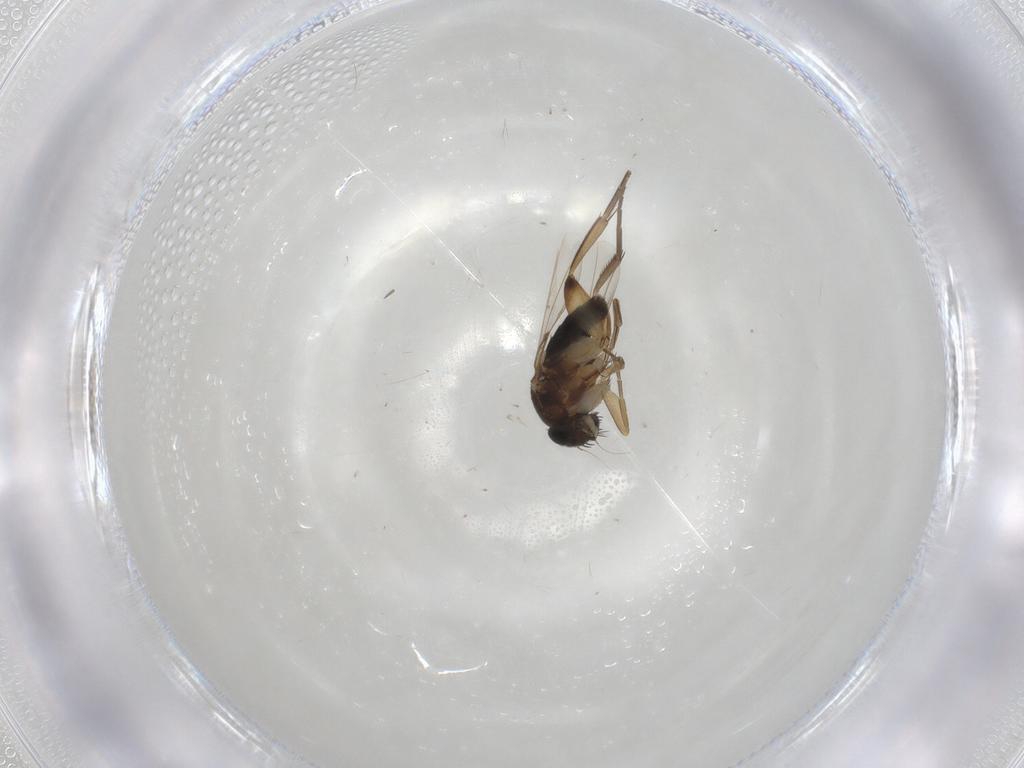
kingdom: Animalia
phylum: Arthropoda
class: Insecta
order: Diptera
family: Phoridae
